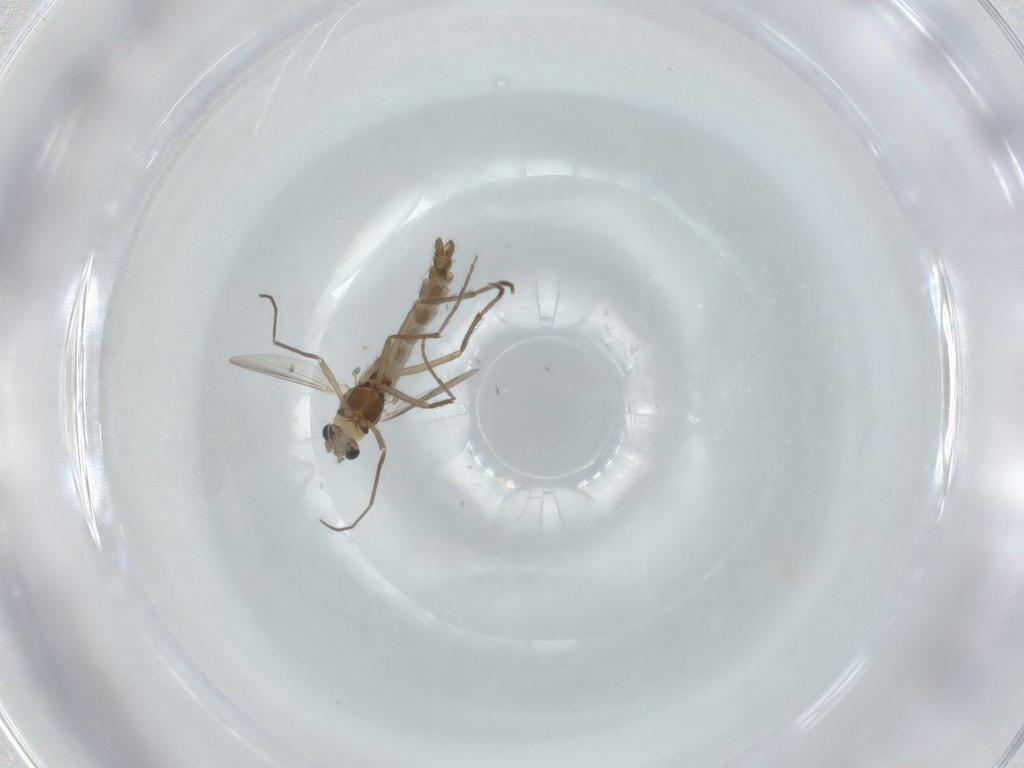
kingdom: Animalia
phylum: Arthropoda
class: Insecta
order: Diptera
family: Chironomidae
